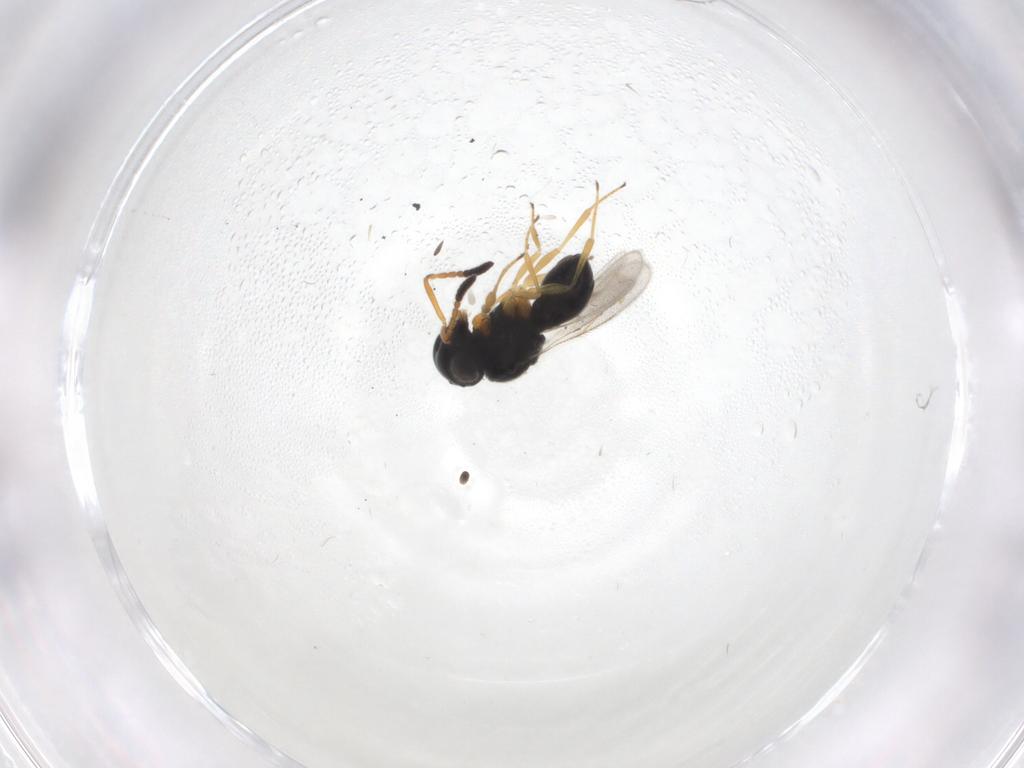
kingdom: Animalia
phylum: Arthropoda
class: Insecta
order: Hymenoptera
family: Scelionidae
